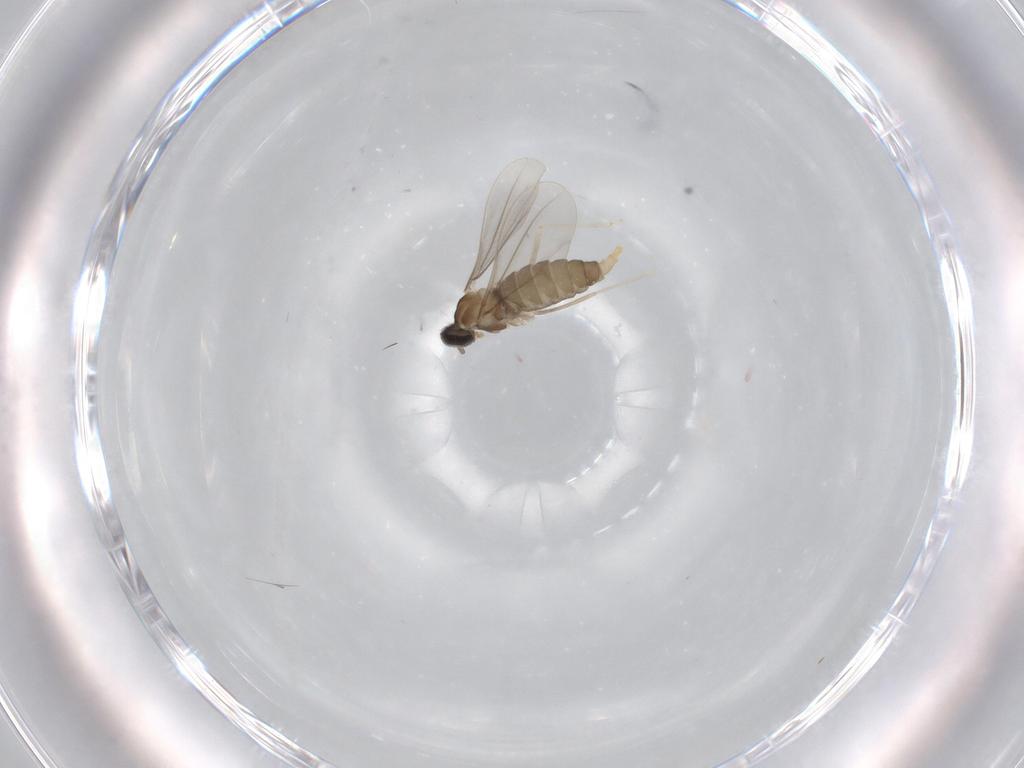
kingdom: Animalia
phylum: Arthropoda
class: Insecta
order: Diptera
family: Cecidomyiidae
